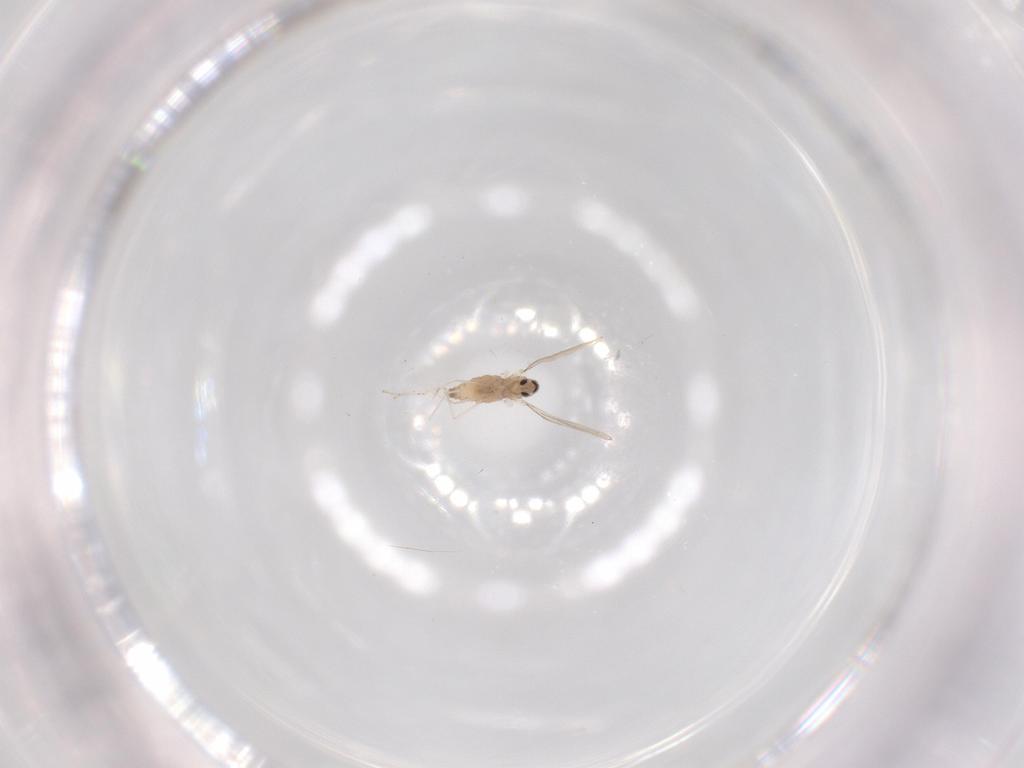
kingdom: Animalia
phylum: Arthropoda
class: Insecta
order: Diptera
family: Cecidomyiidae
